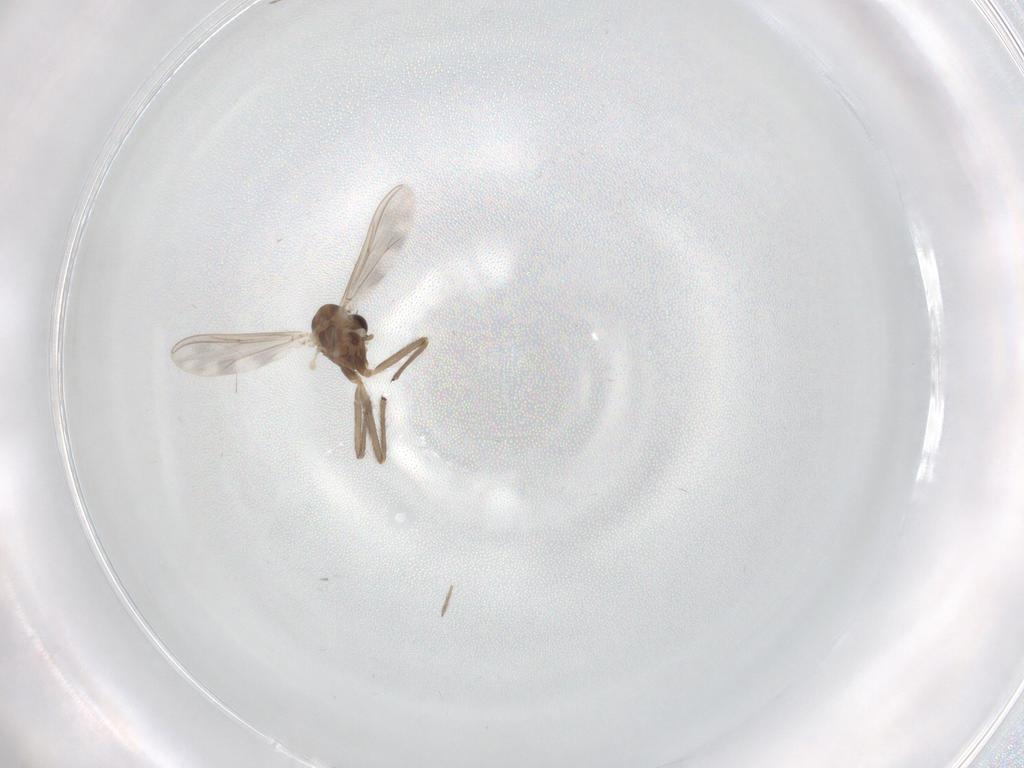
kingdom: Animalia
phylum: Arthropoda
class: Insecta
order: Diptera
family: Chironomidae
